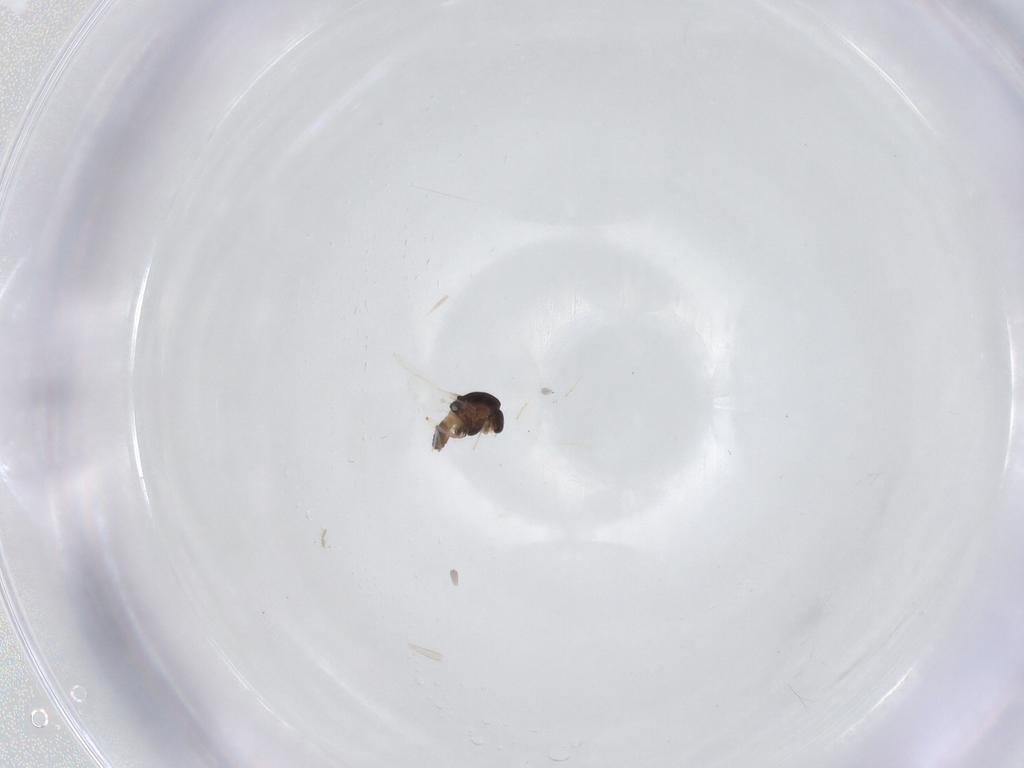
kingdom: Animalia
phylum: Arthropoda
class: Insecta
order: Diptera
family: Chironomidae
